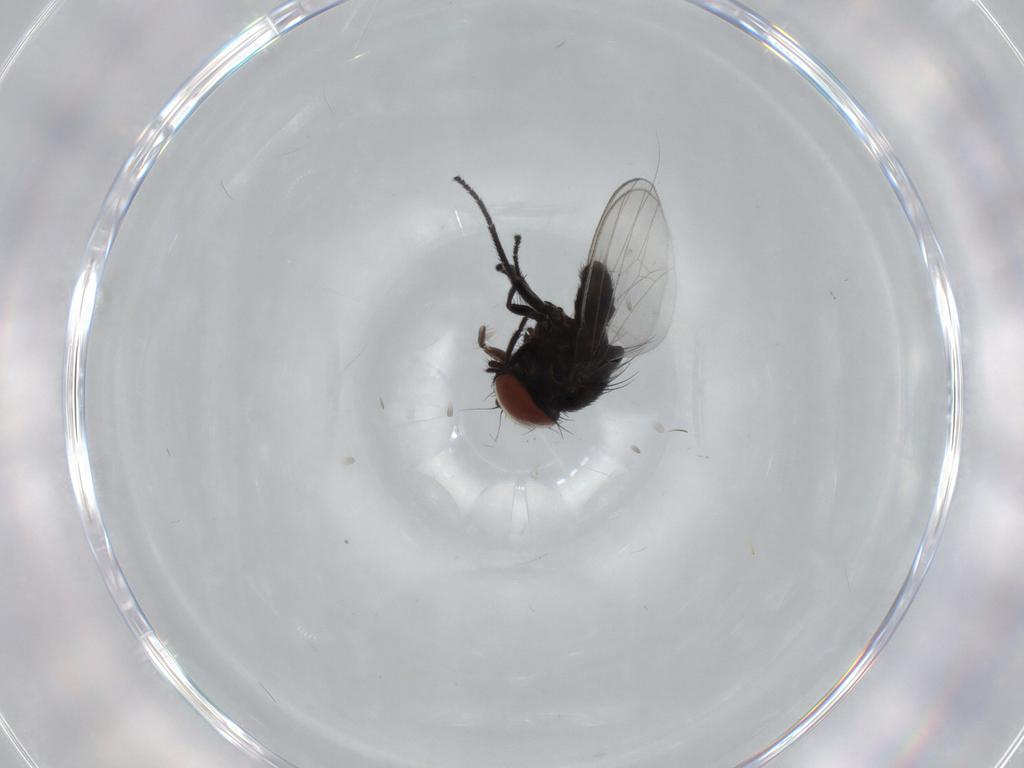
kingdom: Animalia
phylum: Arthropoda
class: Insecta
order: Diptera
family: Milichiidae
